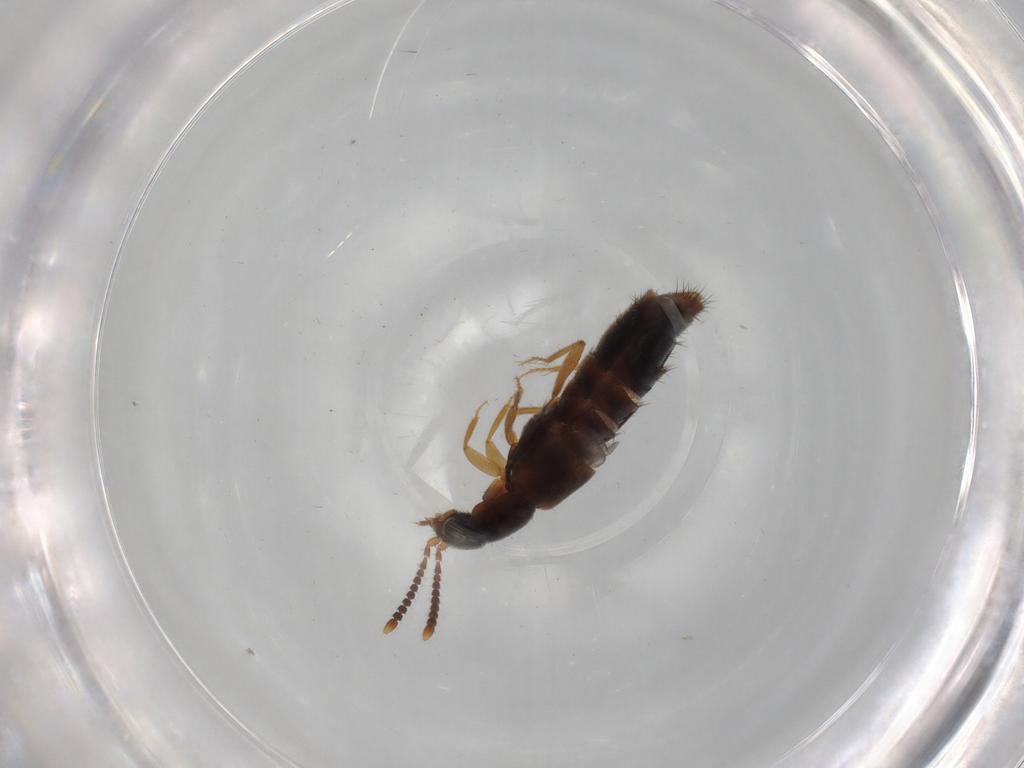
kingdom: Animalia
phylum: Arthropoda
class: Insecta
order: Coleoptera
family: Staphylinidae
